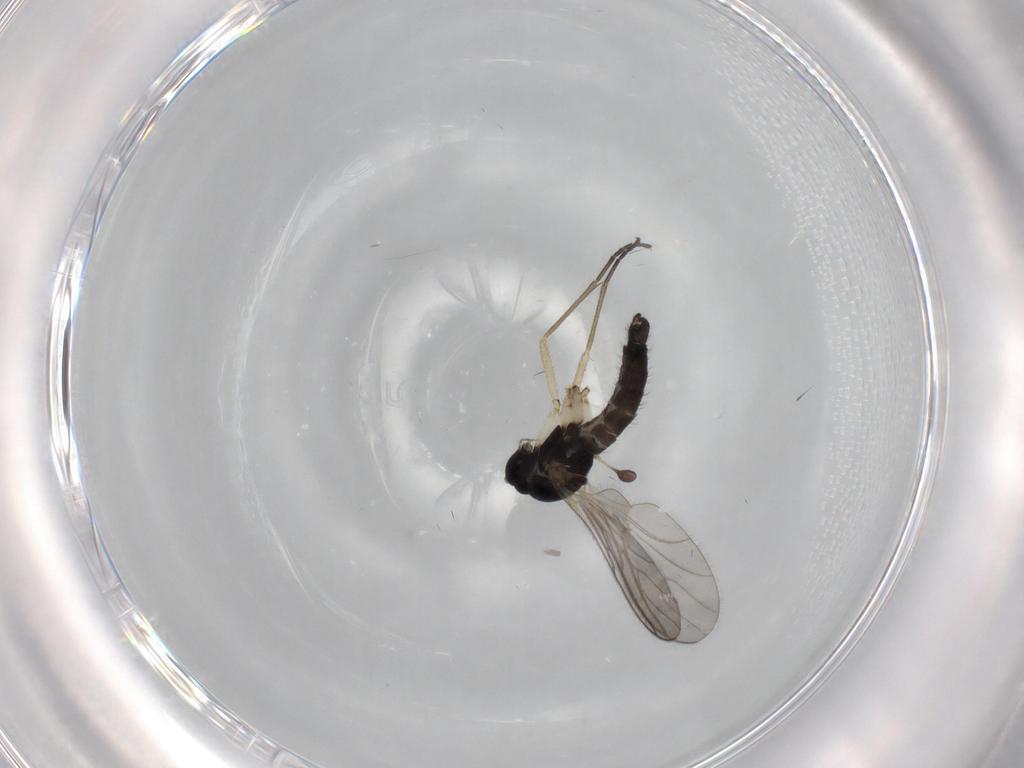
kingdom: Animalia
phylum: Arthropoda
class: Insecta
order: Diptera
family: Sciaridae
